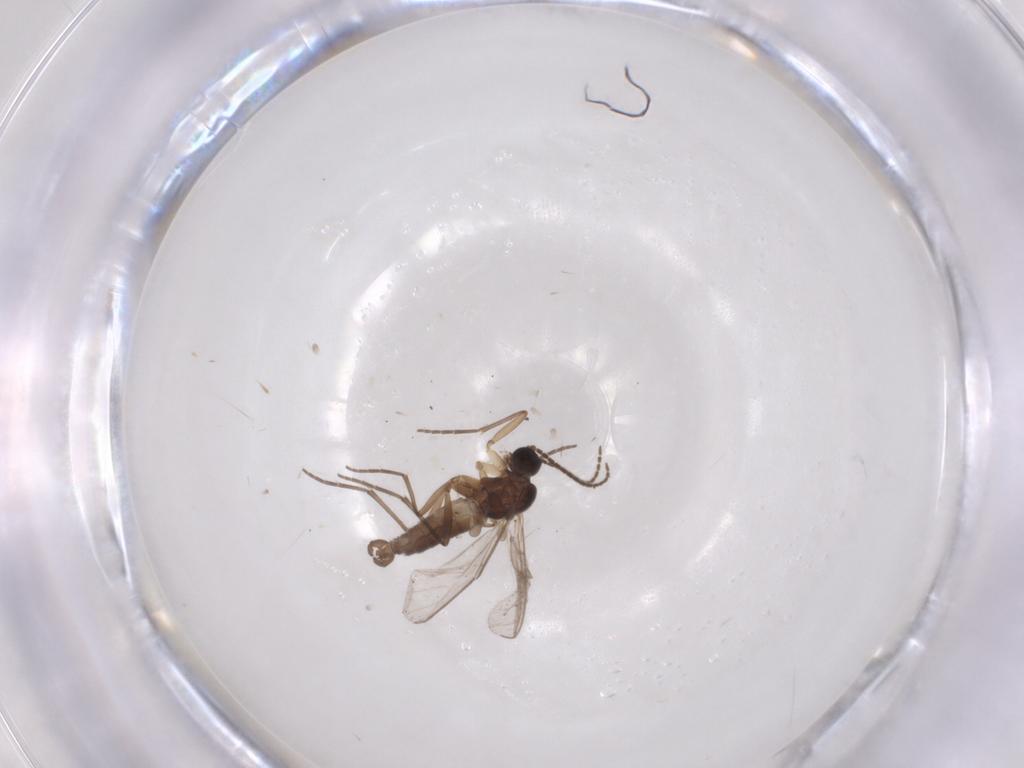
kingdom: Animalia
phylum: Arthropoda
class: Insecta
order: Diptera
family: Sciaridae
